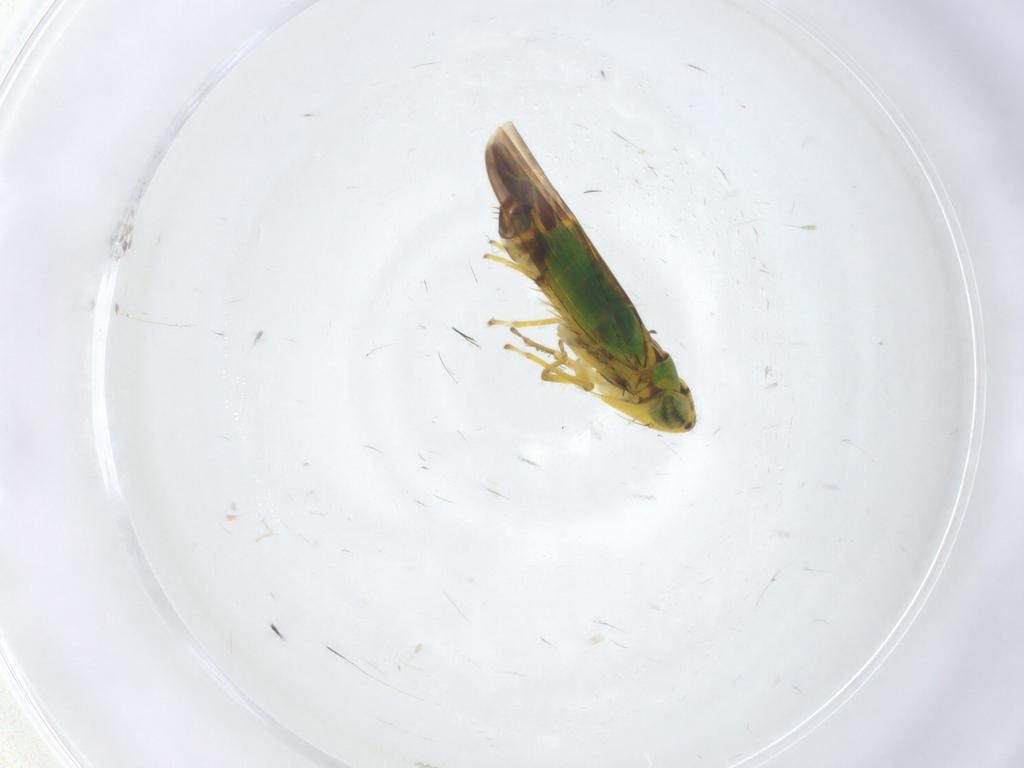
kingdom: Animalia
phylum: Arthropoda
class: Insecta
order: Hemiptera
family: Cicadellidae
